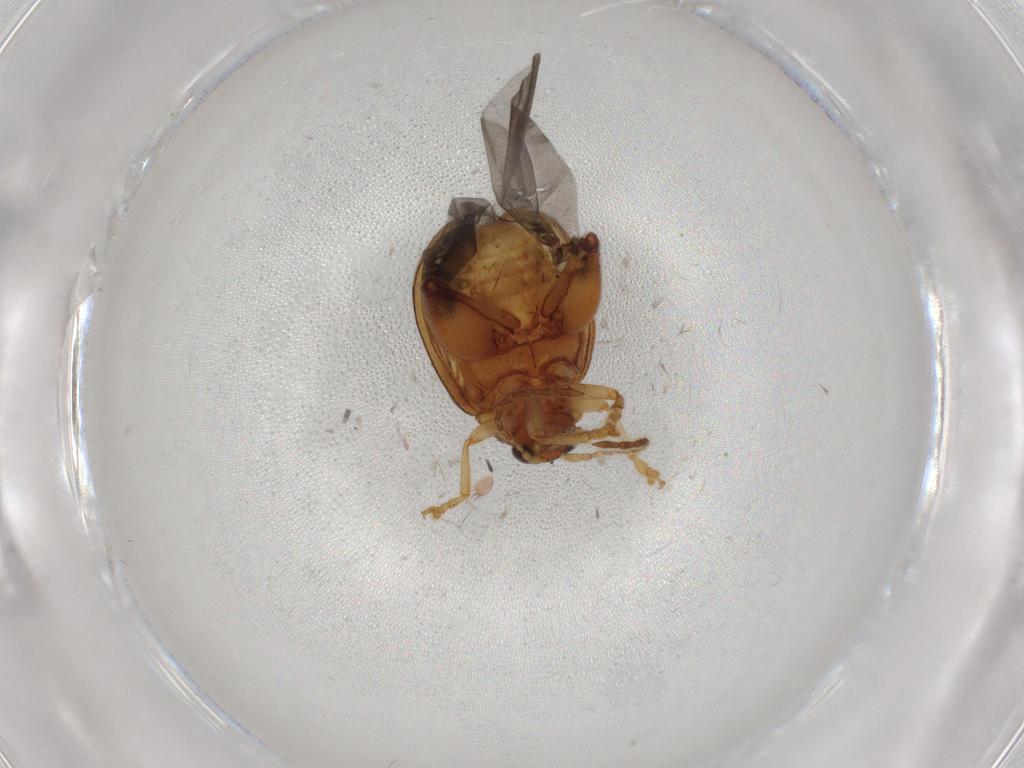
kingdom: Animalia
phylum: Arthropoda
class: Insecta
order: Coleoptera
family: Chrysomelidae
